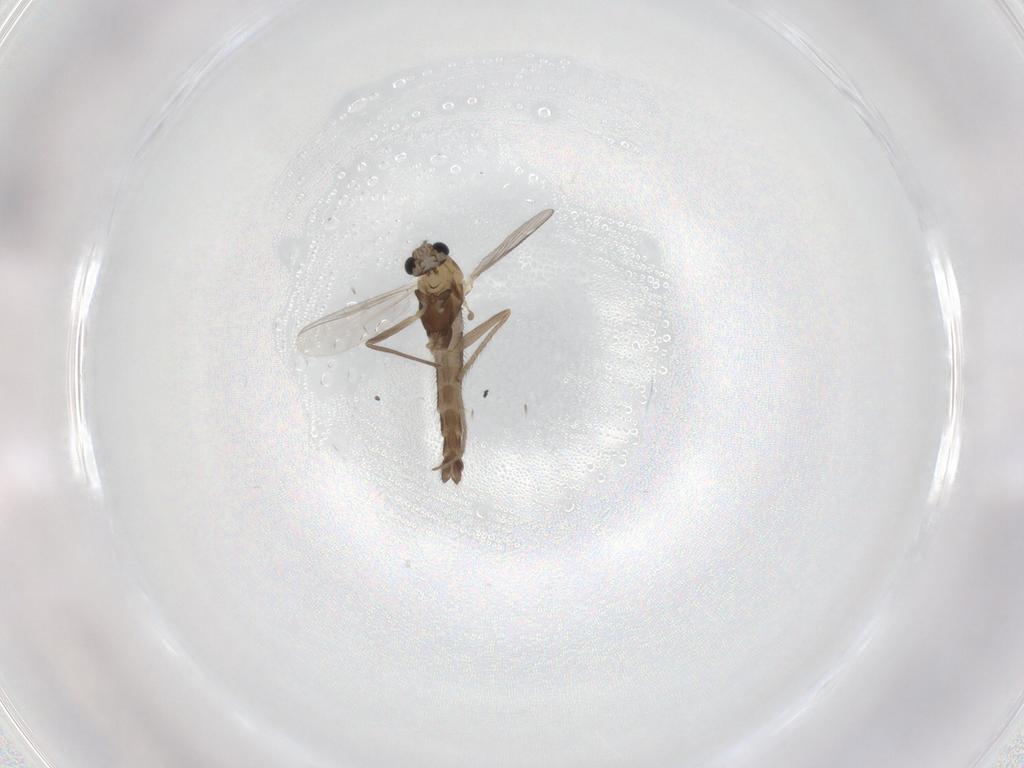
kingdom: Animalia
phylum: Arthropoda
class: Insecta
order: Diptera
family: Chironomidae
